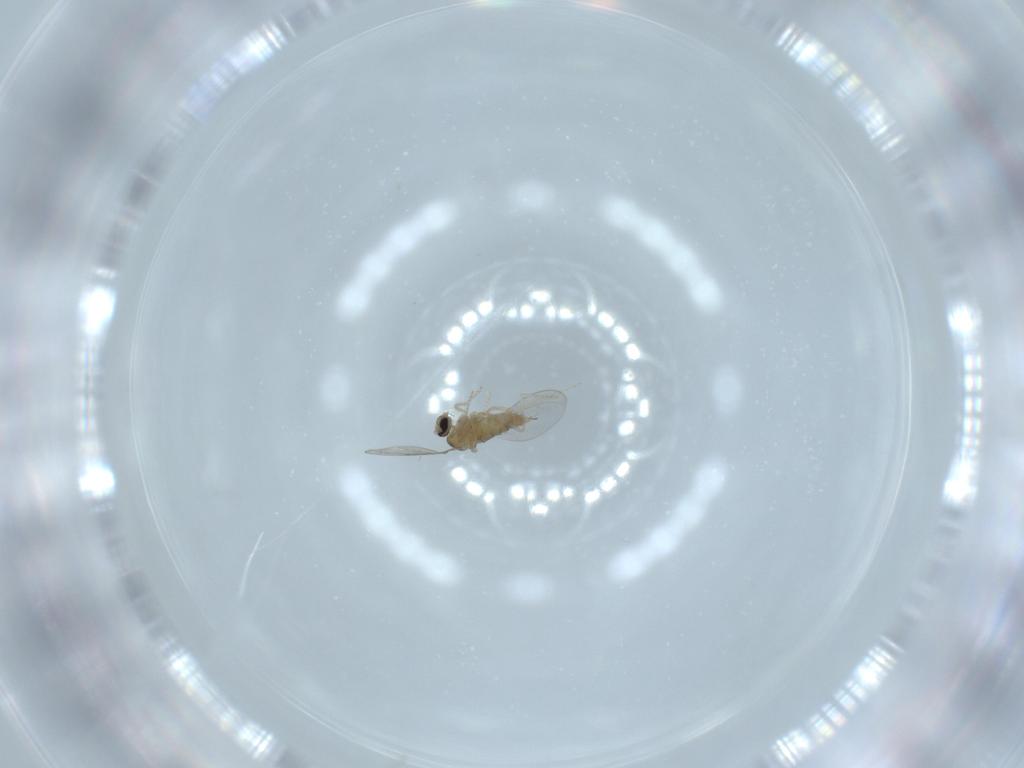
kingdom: Animalia
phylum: Arthropoda
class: Insecta
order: Diptera
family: Cecidomyiidae
